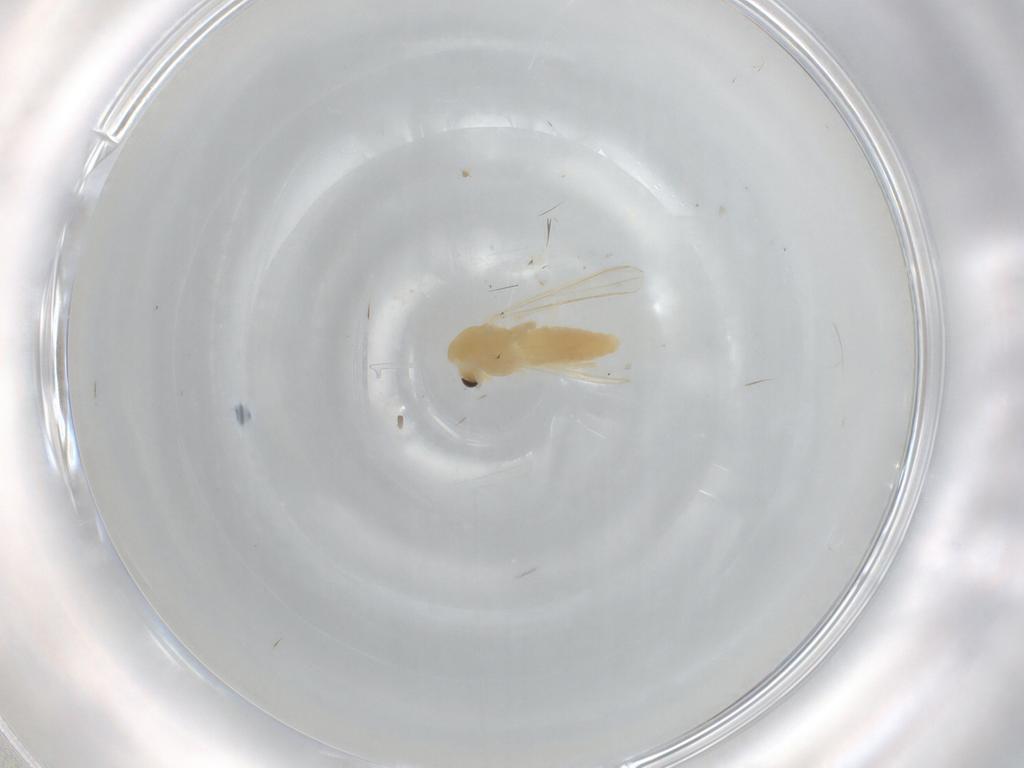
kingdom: Animalia
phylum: Arthropoda
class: Insecta
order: Diptera
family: Chironomidae
